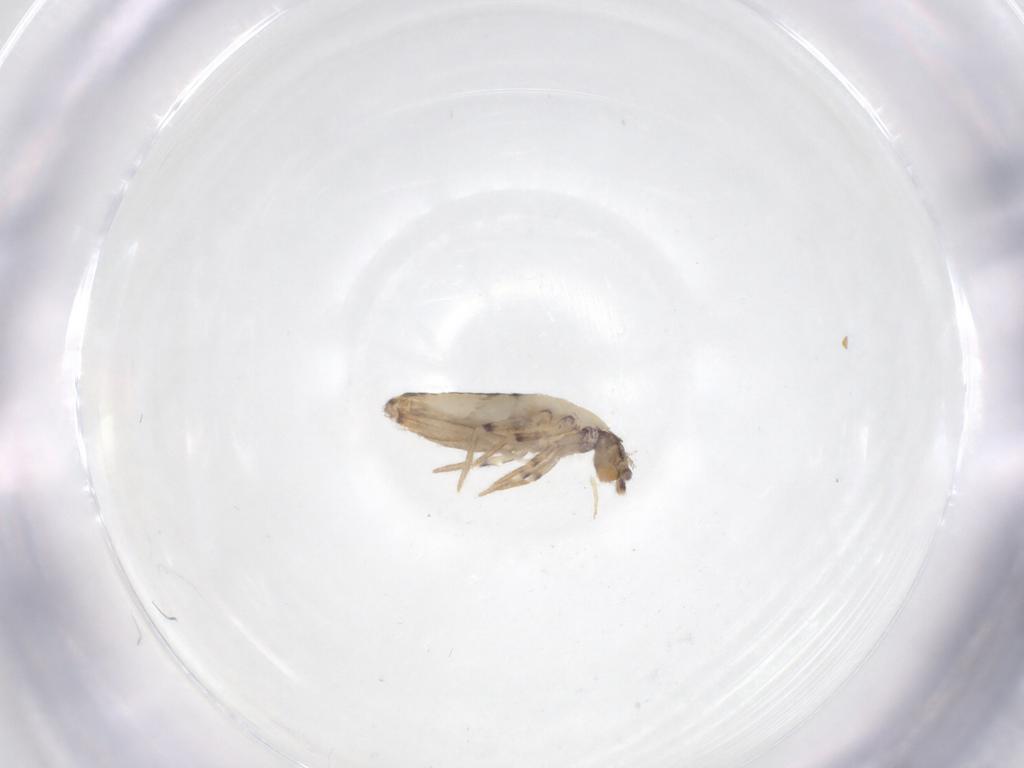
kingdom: Animalia
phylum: Arthropoda
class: Collembola
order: Entomobryomorpha
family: Entomobryidae
